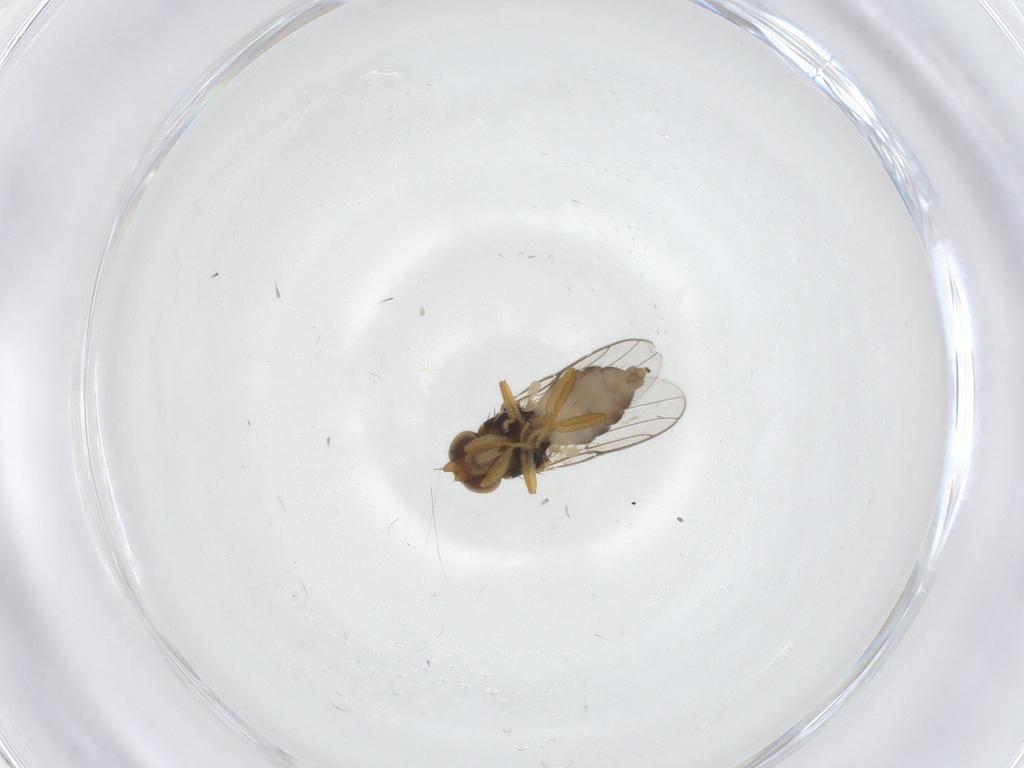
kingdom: Animalia
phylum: Arthropoda
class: Insecta
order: Diptera
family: Chloropidae
